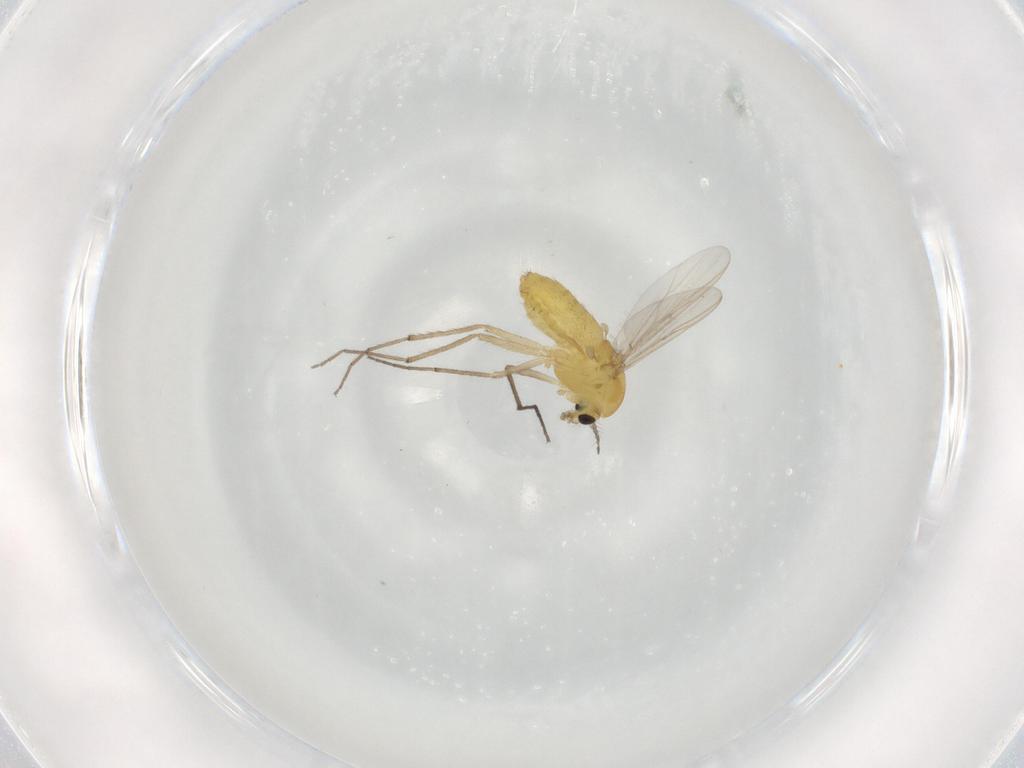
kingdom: Animalia
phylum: Arthropoda
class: Insecta
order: Diptera
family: Chironomidae
